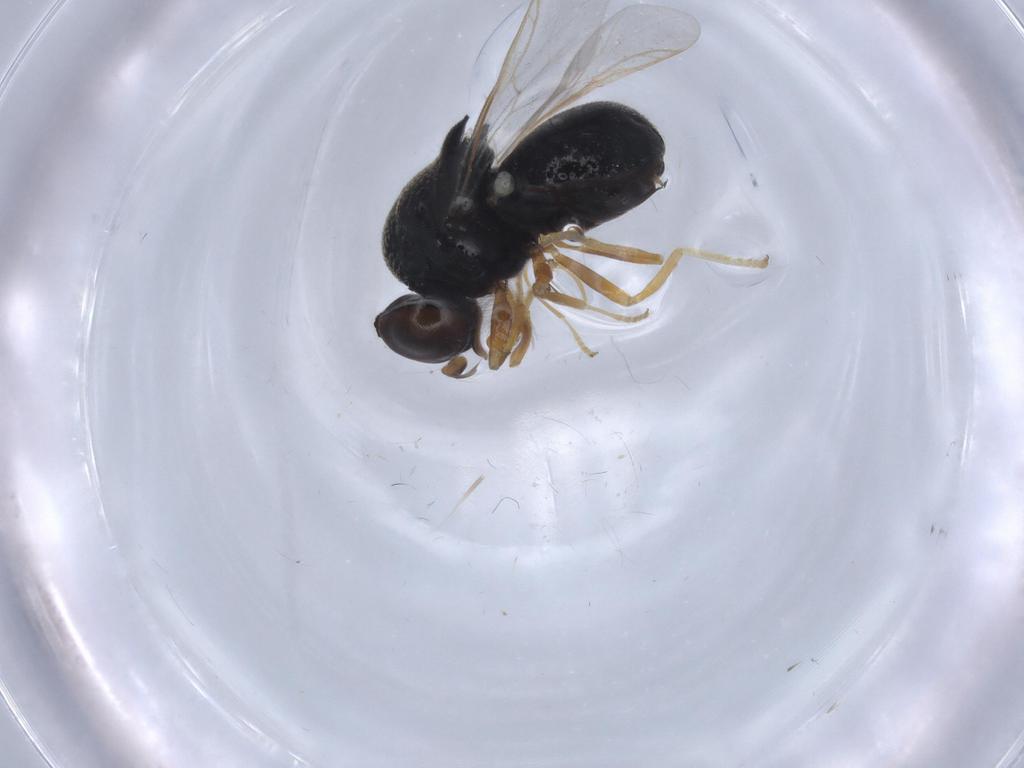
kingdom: Animalia
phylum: Arthropoda
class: Insecta
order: Diptera
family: Stratiomyidae
